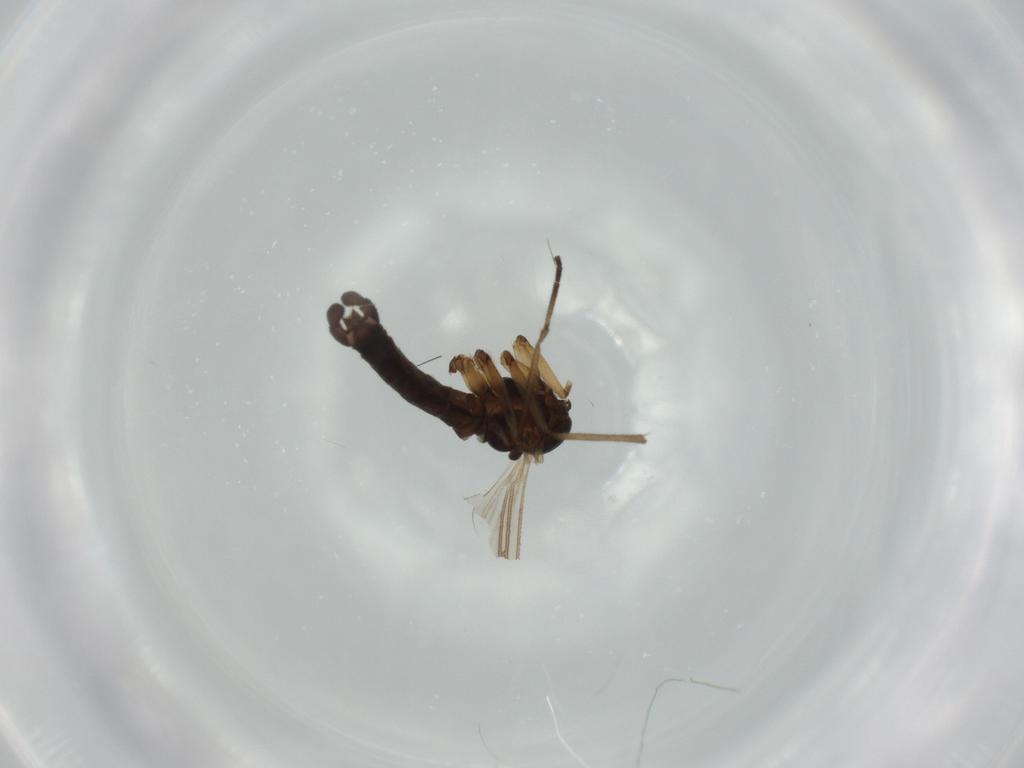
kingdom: Animalia
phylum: Arthropoda
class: Insecta
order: Diptera
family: Sciaridae
